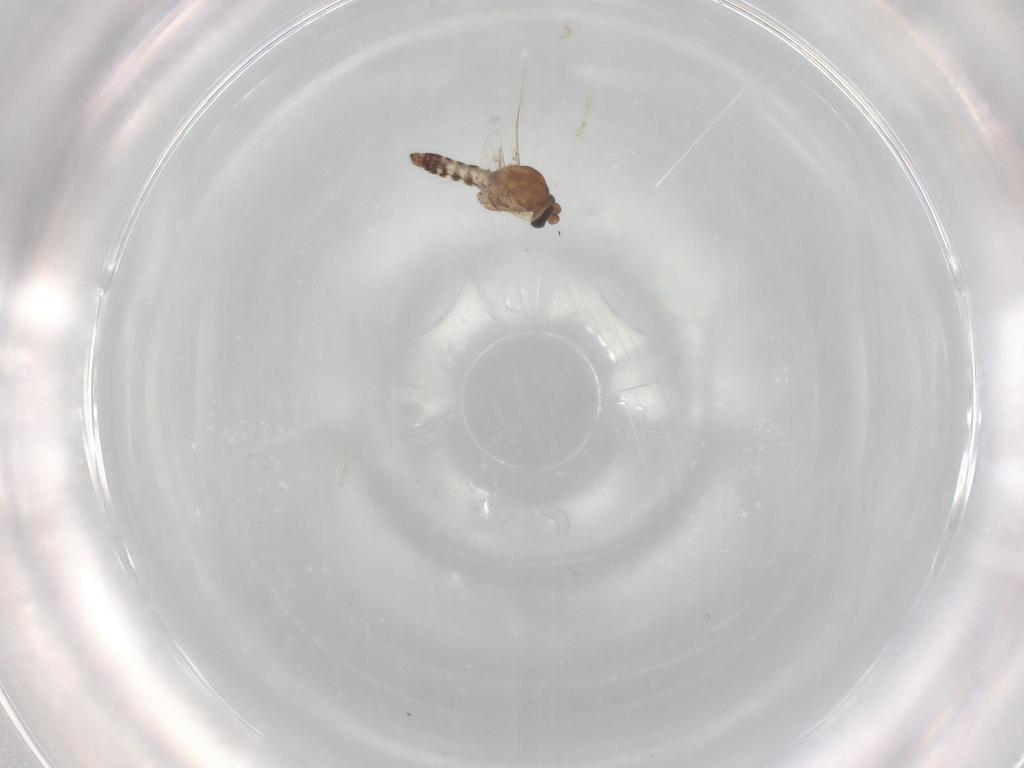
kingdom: Animalia
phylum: Arthropoda
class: Insecta
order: Diptera
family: Ceratopogonidae
